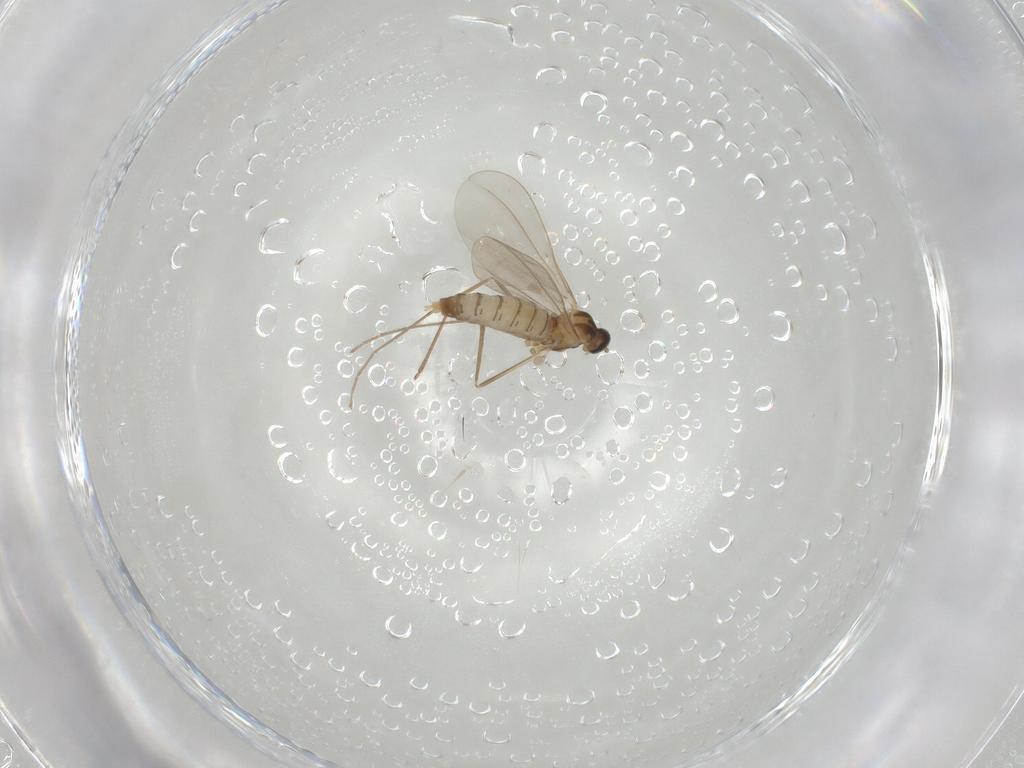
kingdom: Animalia
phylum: Arthropoda
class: Insecta
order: Diptera
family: Cecidomyiidae
